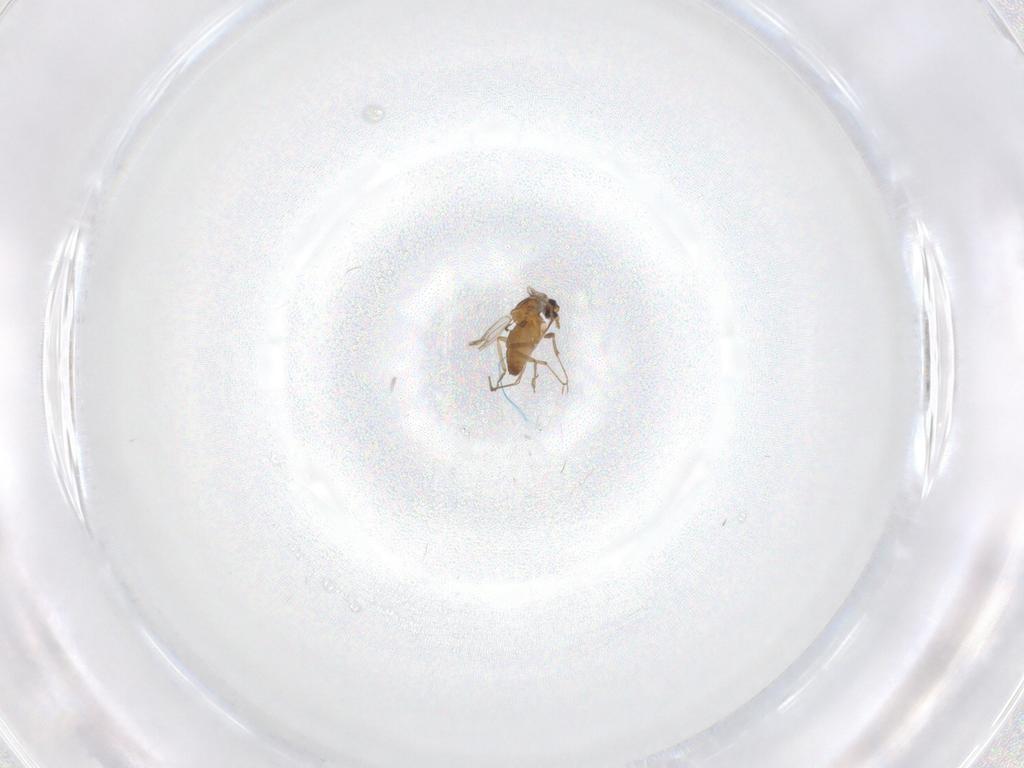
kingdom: Animalia
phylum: Arthropoda
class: Insecta
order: Diptera
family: Ceratopogonidae
